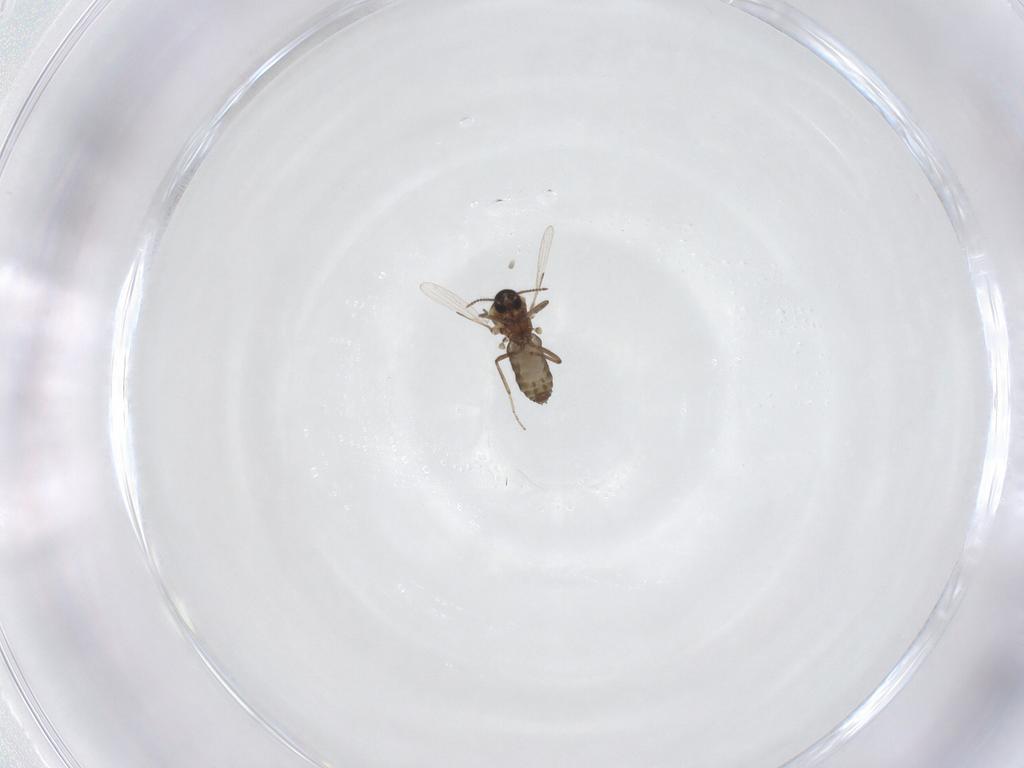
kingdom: Animalia
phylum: Arthropoda
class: Insecta
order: Diptera
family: Ceratopogonidae
